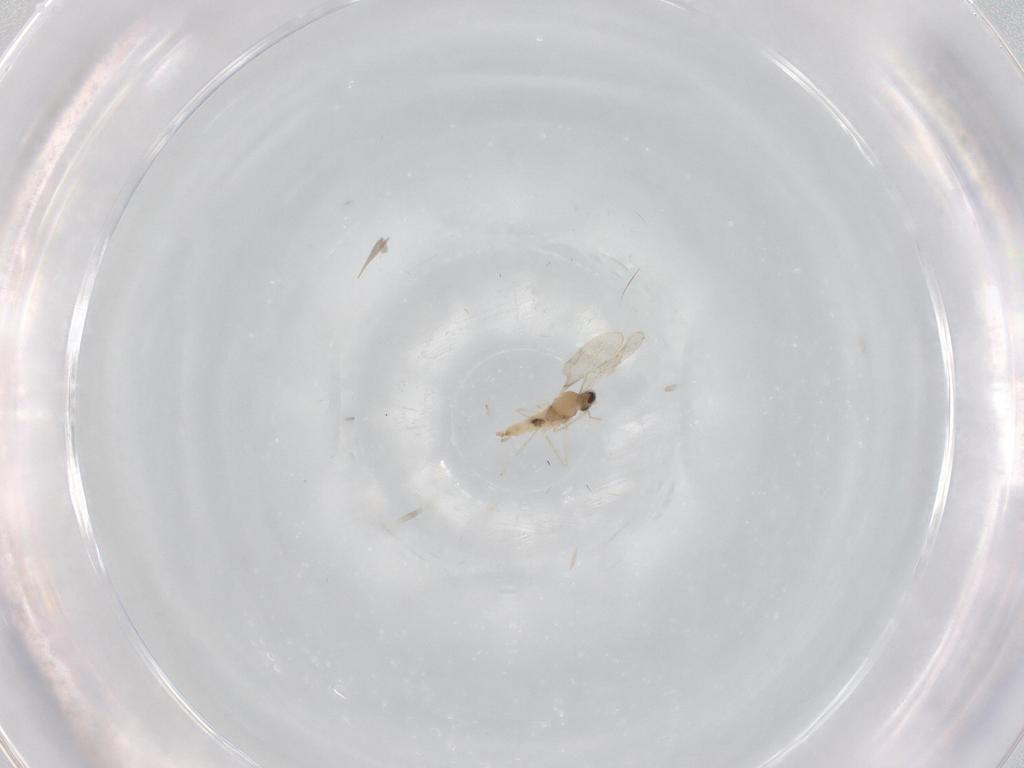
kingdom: Animalia
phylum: Arthropoda
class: Insecta
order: Diptera
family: Cecidomyiidae
